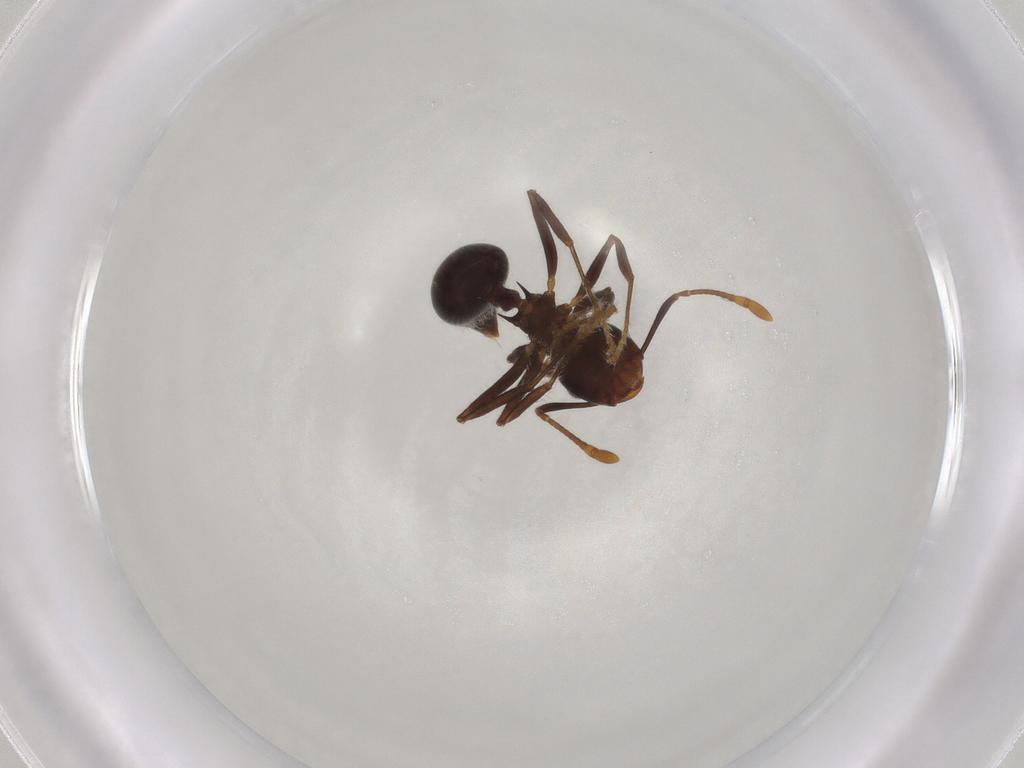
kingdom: Animalia
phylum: Arthropoda
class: Insecta
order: Hymenoptera
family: Formicidae
